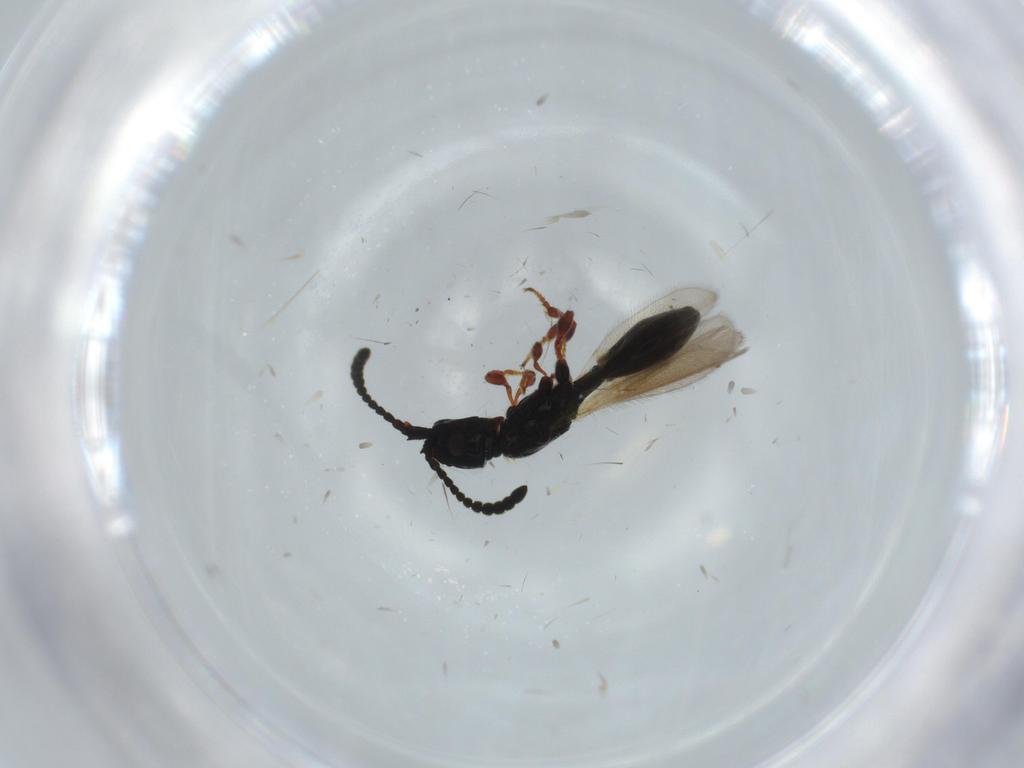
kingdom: Animalia
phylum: Arthropoda
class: Insecta
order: Hymenoptera
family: Diapriidae
